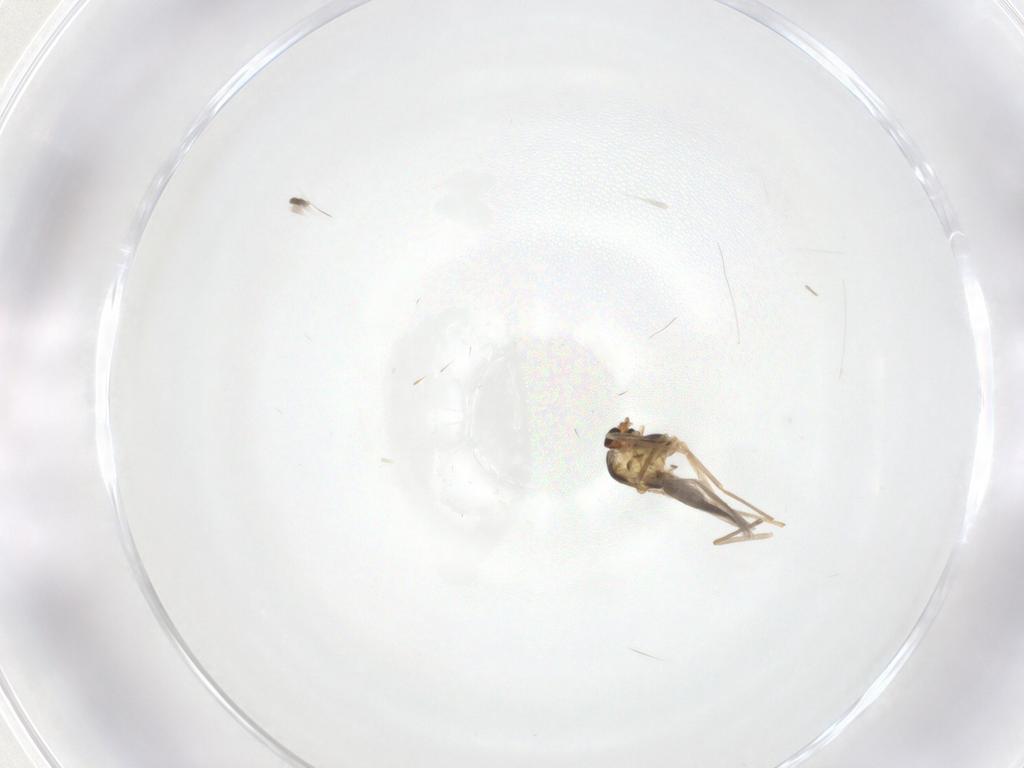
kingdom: Animalia
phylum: Arthropoda
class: Insecta
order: Diptera
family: Chironomidae
